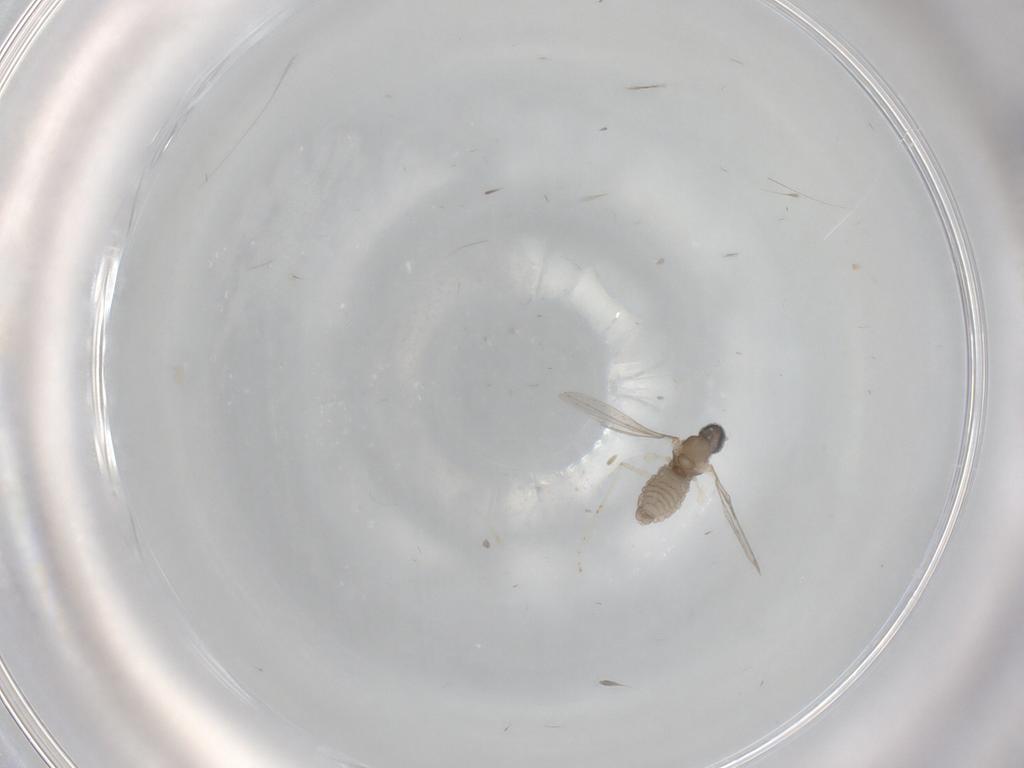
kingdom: Animalia
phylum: Arthropoda
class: Insecta
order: Diptera
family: Cecidomyiidae
